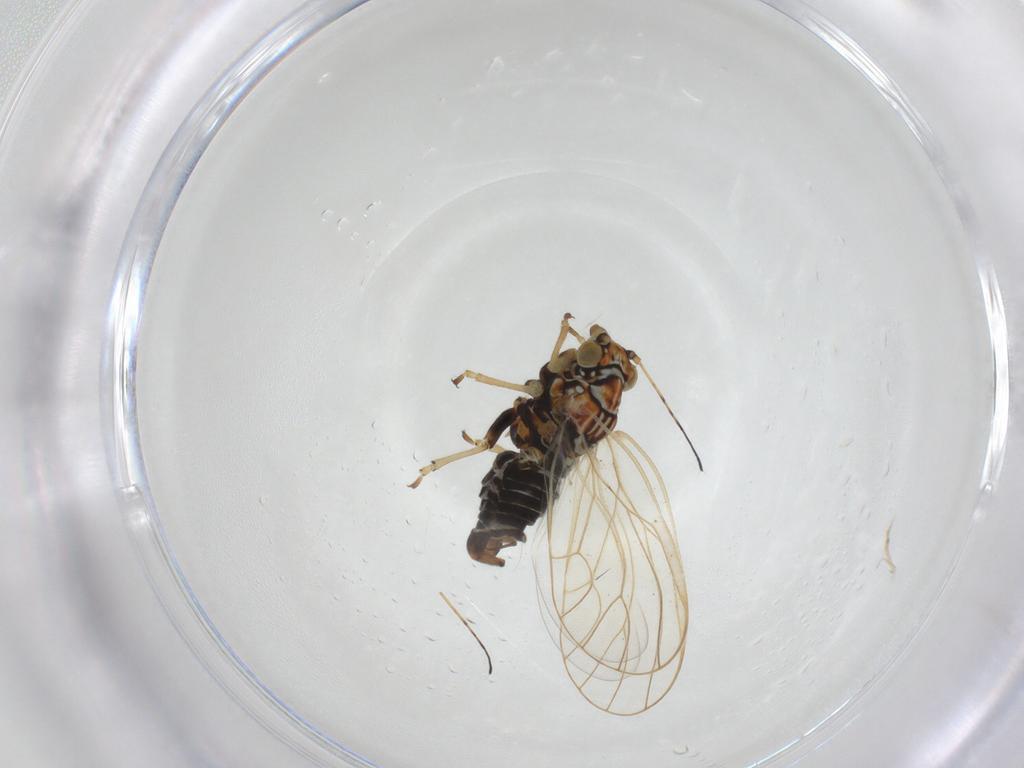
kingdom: Animalia
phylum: Arthropoda
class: Insecta
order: Hemiptera
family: Psyllidae
